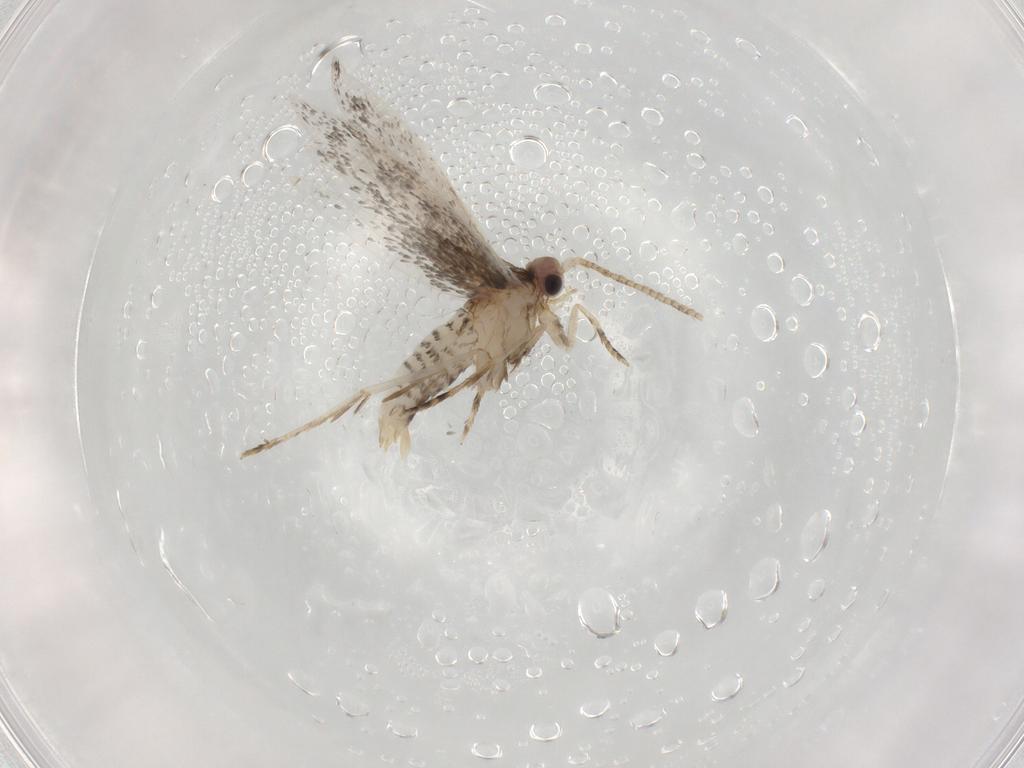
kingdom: Animalia
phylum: Arthropoda
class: Insecta
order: Lepidoptera
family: Tineidae
